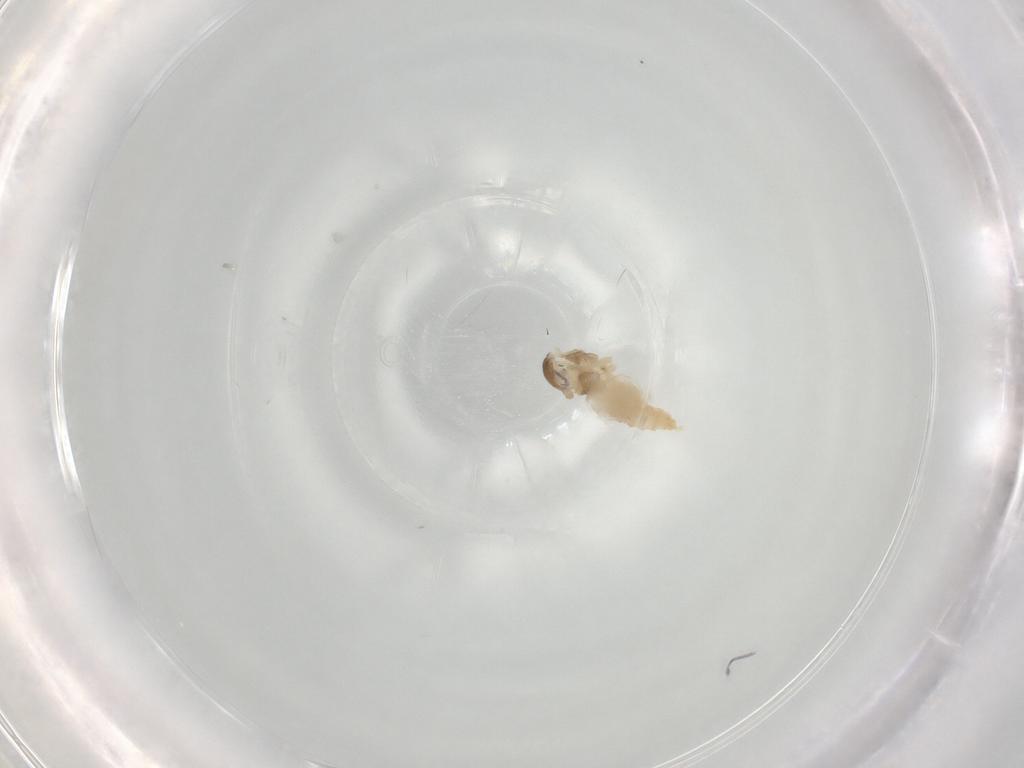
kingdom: Animalia
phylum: Arthropoda
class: Insecta
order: Diptera
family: Cecidomyiidae
